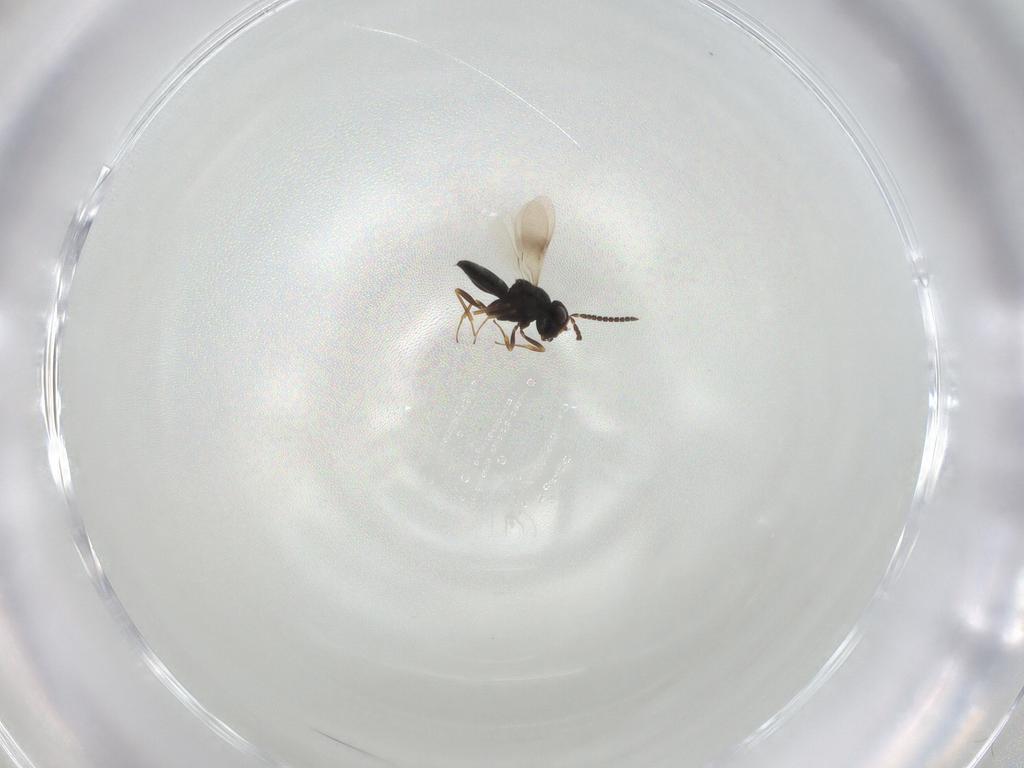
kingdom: Animalia
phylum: Arthropoda
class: Insecta
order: Hymenoptera
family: Scelionidae
